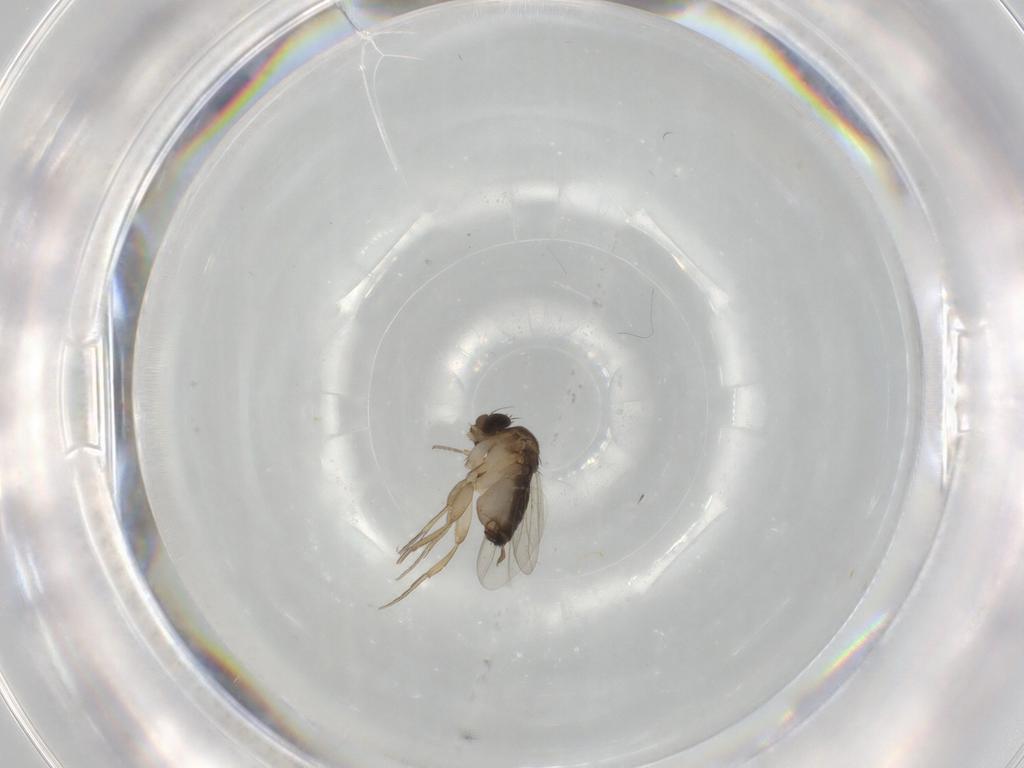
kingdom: Animalia
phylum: Arthropoda
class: Insecta
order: Diptera
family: Phoridae
